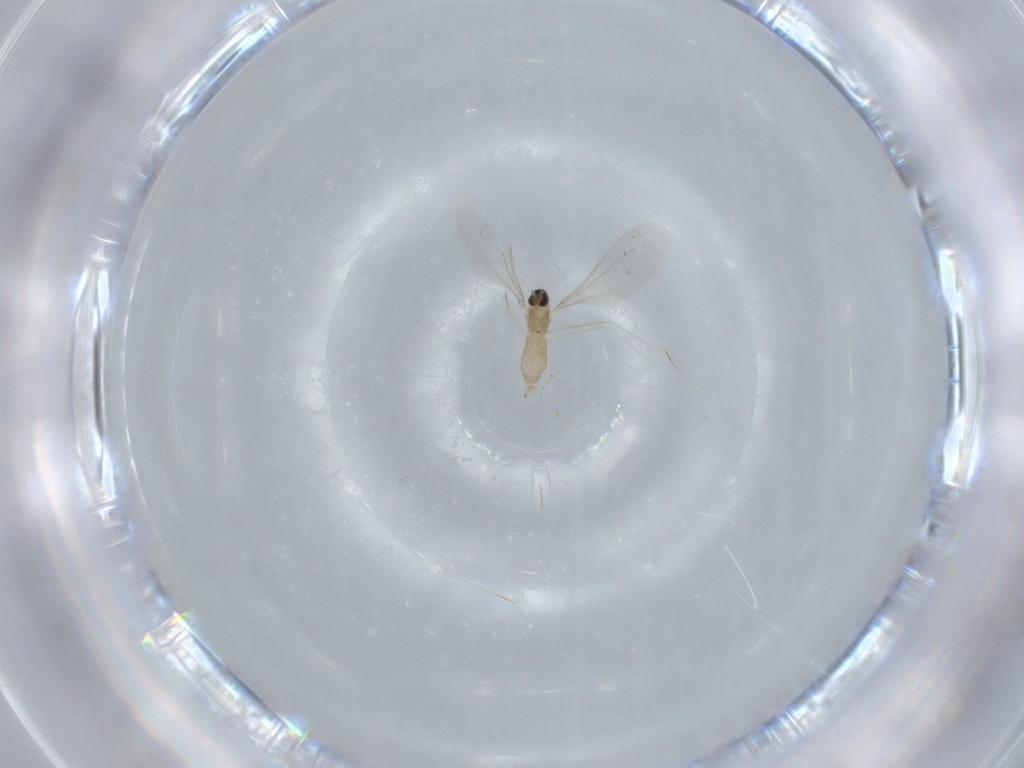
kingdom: Animalia
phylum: Arthropoda
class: Insecta
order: Diptera
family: Cecidomyiidae
